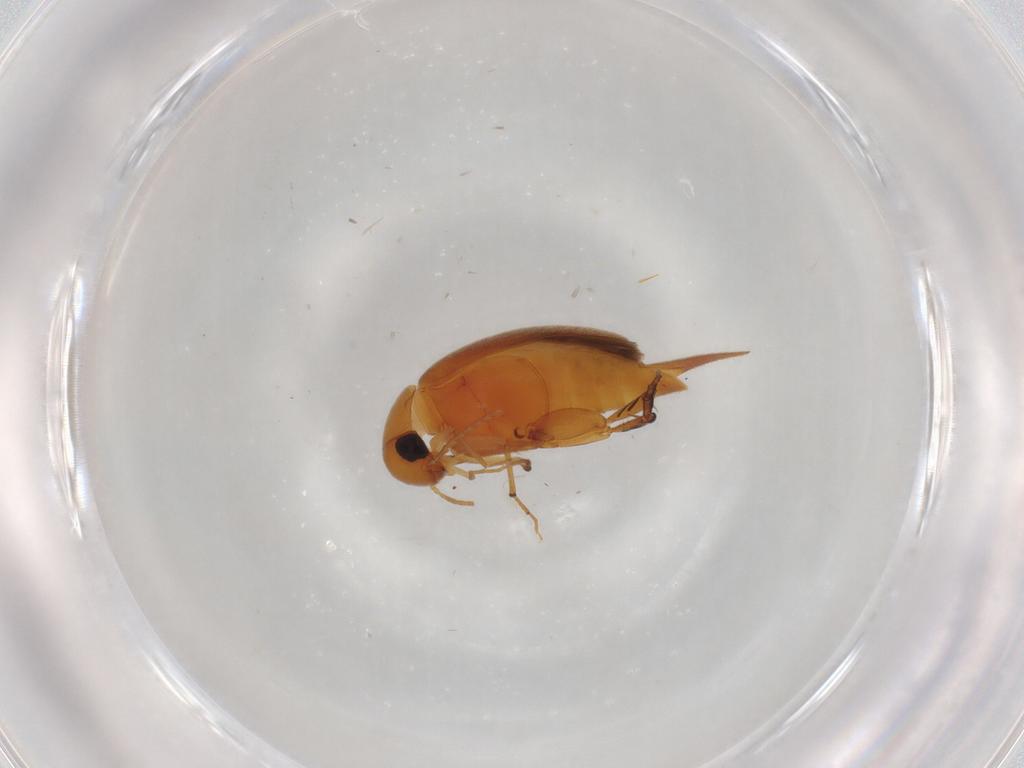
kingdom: Animalia
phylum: Arthropoda
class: Insecta
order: Coleoptera
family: Mordellidae
